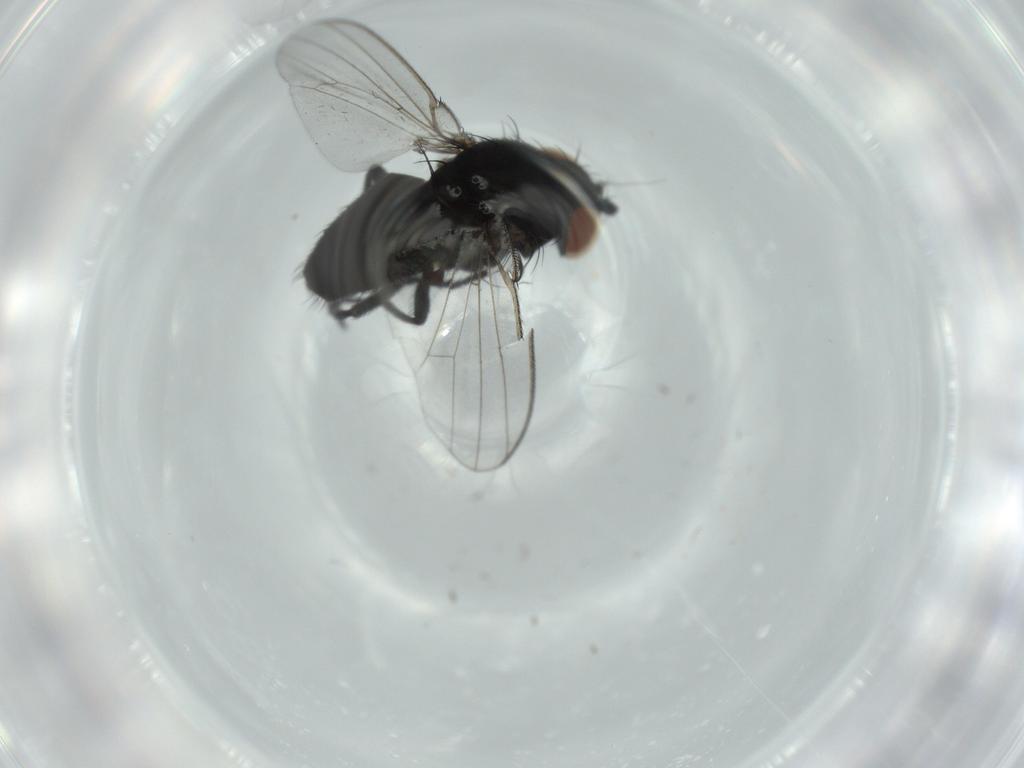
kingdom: Animalia
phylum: Arthropoda
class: Insecta
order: Diptera
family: Milichiidae
